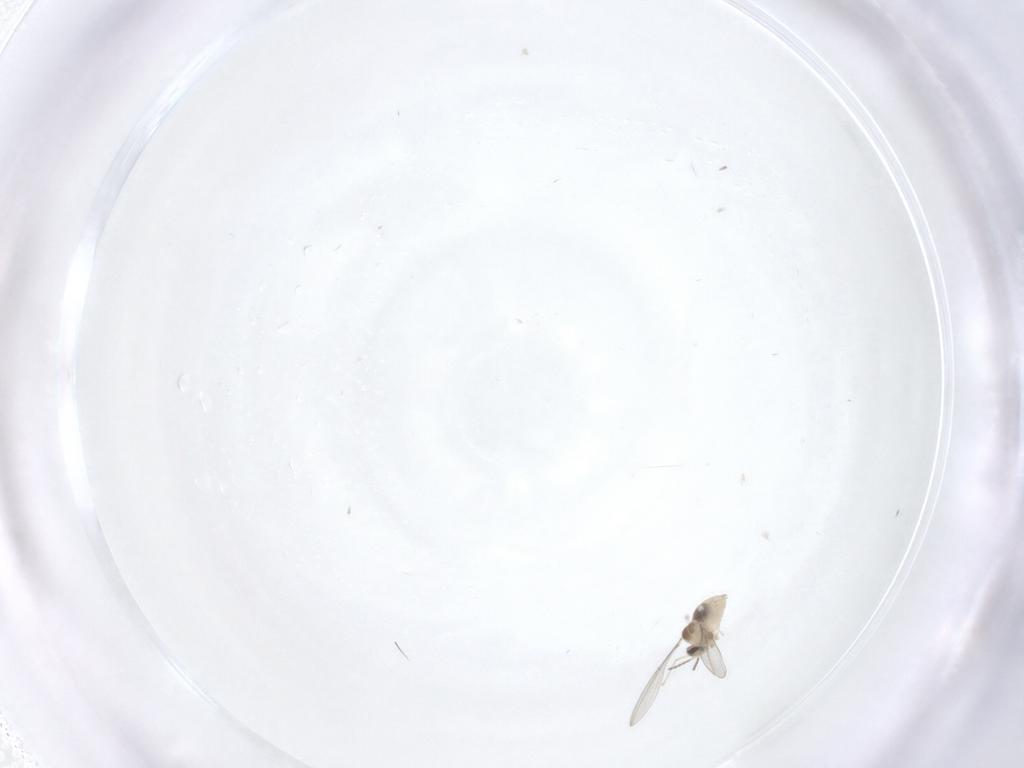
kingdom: Animalia
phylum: Arthropoda
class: Insecta
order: Diptera
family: Cecidomyiidae
